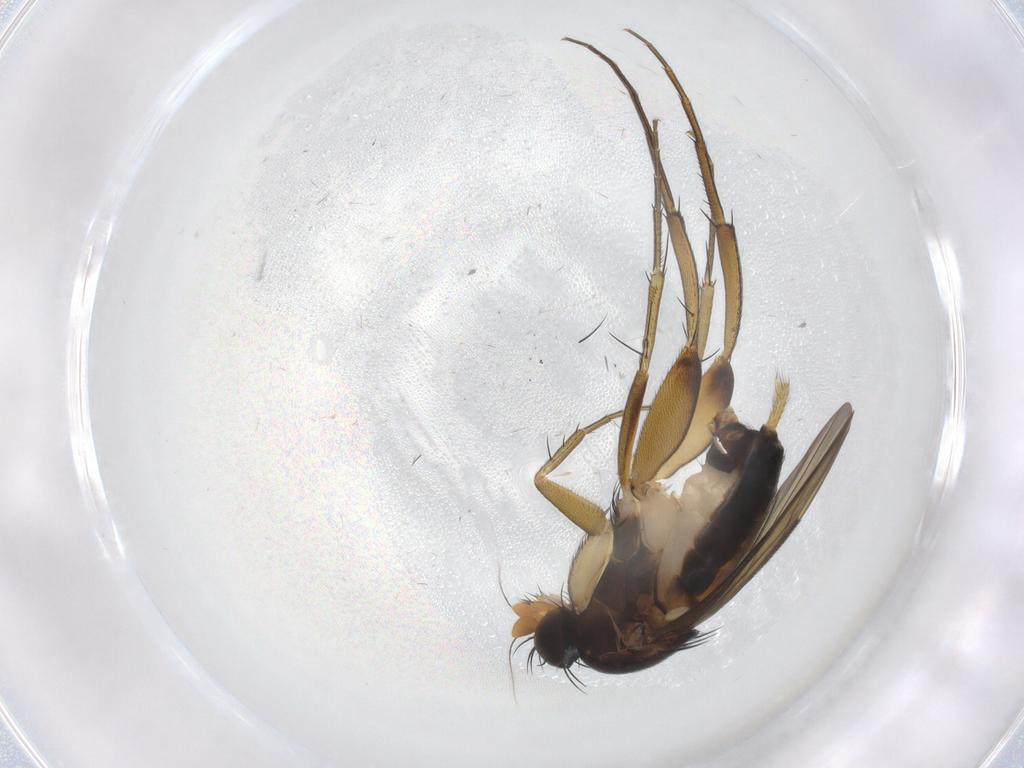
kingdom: Animalia
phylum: Arthropoda
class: Insecta
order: Diptera
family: Phoridae
